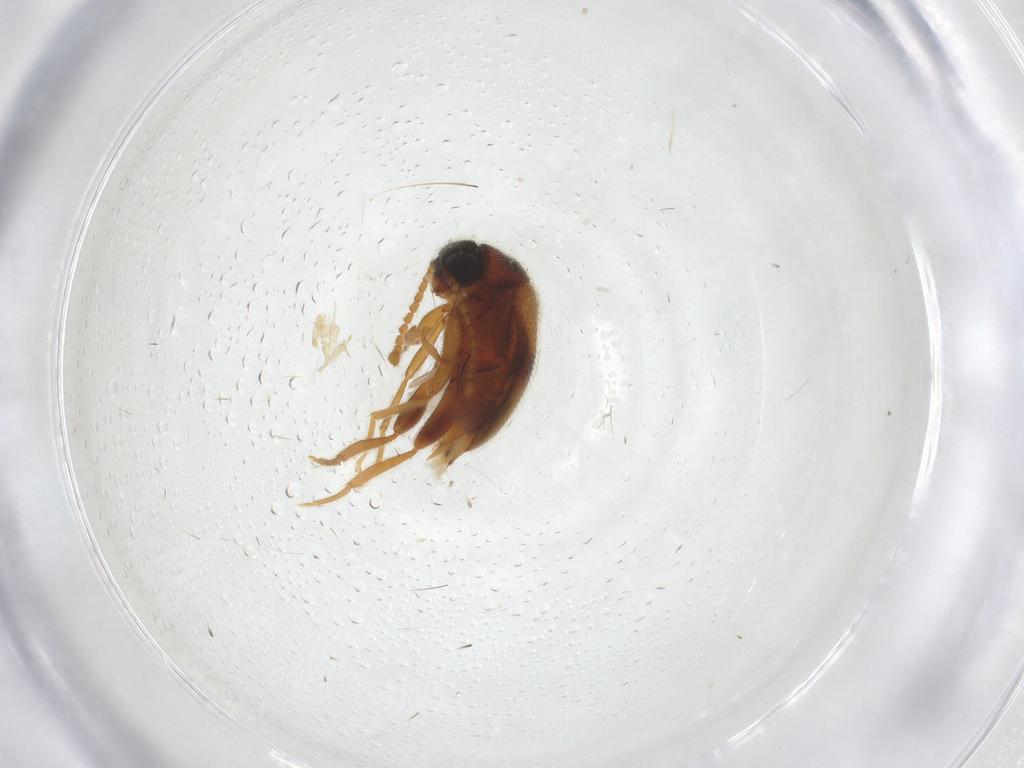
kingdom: Animalia
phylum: Arthropoda
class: Insecta
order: Coleoptera
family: Aderidae
